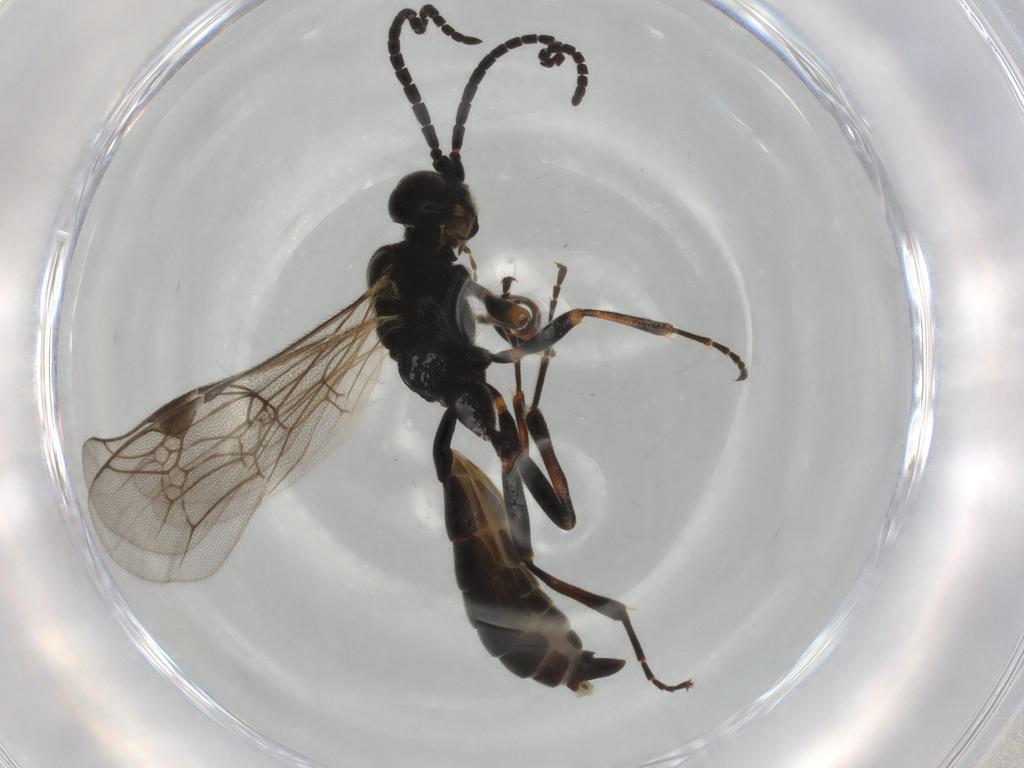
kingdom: Animalia
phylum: Arthropoda
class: Insecta
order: Hymenoptera
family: Ichneumonidae
